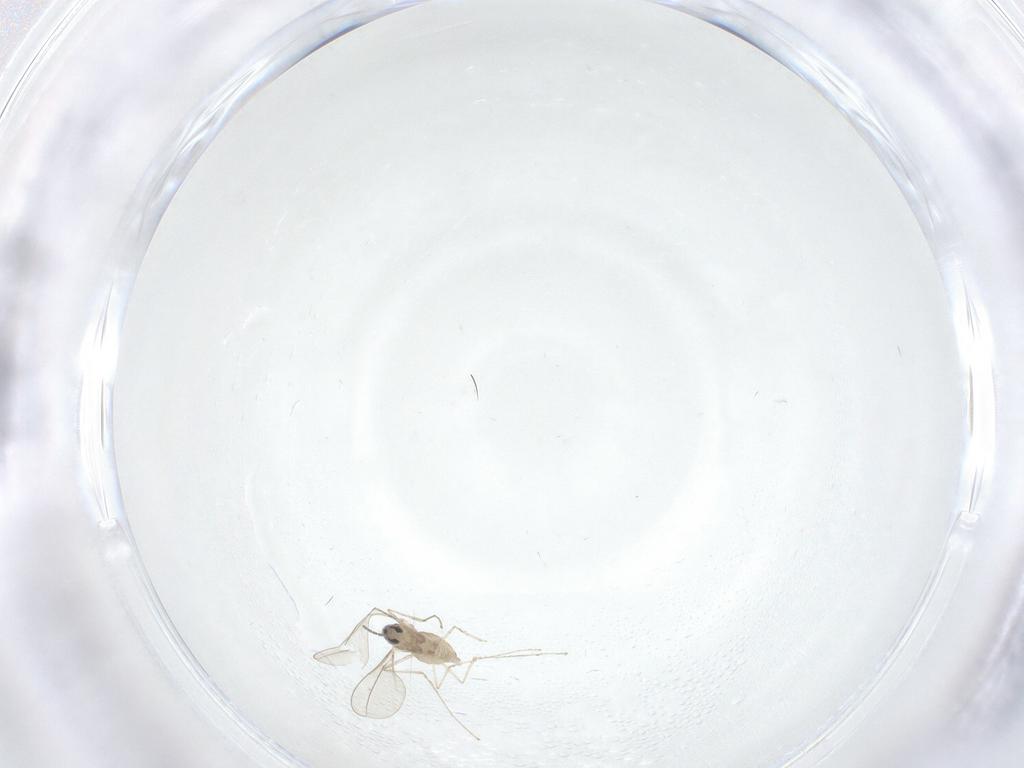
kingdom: Animalia
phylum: Arthropoda
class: Insecta
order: Diptera
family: Cecidomyiidae
